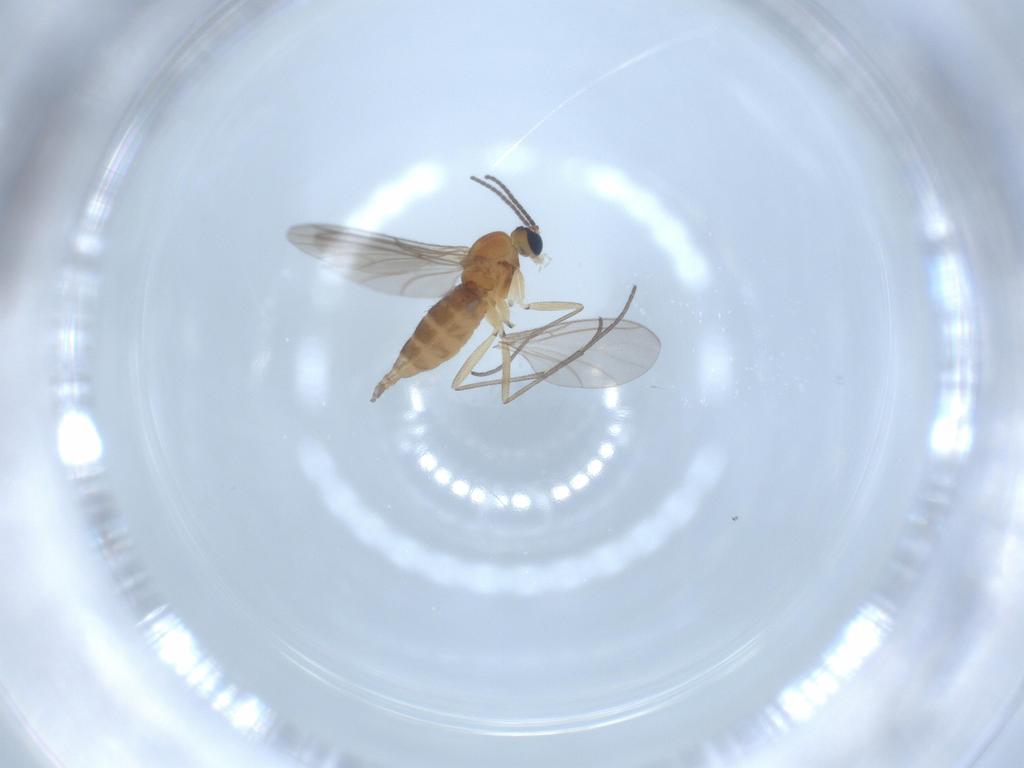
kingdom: Animalia
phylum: Arthropoda
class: Insecta
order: Diptera
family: Sciaridae
